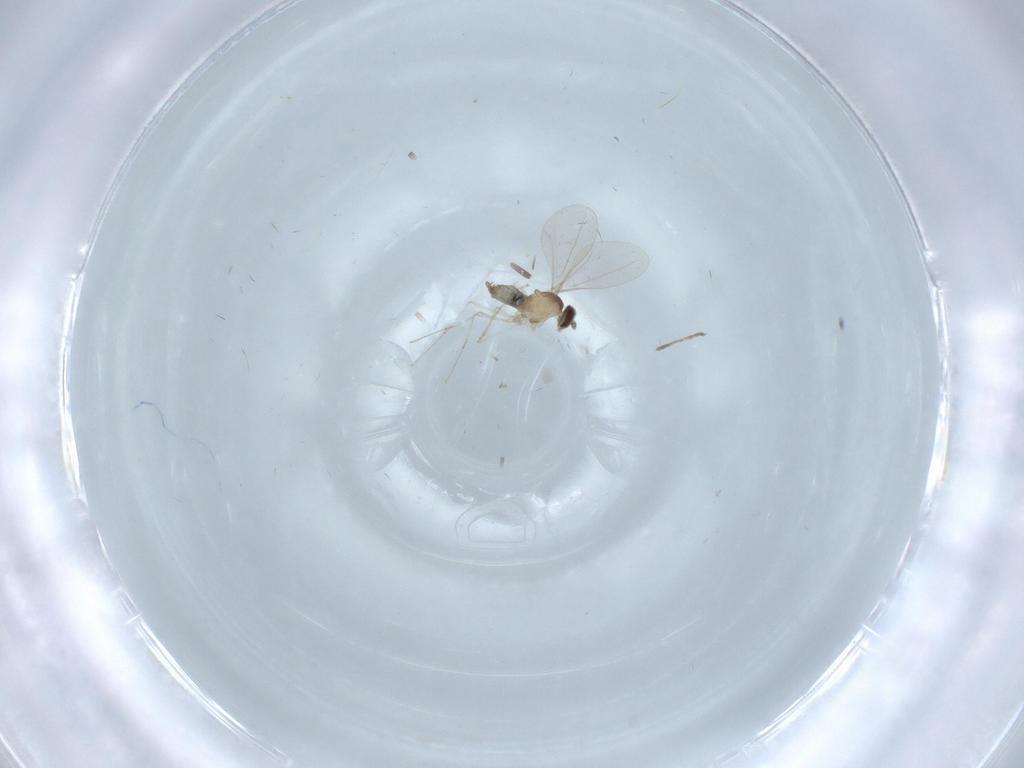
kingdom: Animalia
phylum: Arthropoda
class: Insecta
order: Diptera
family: Cecidomyiidae
